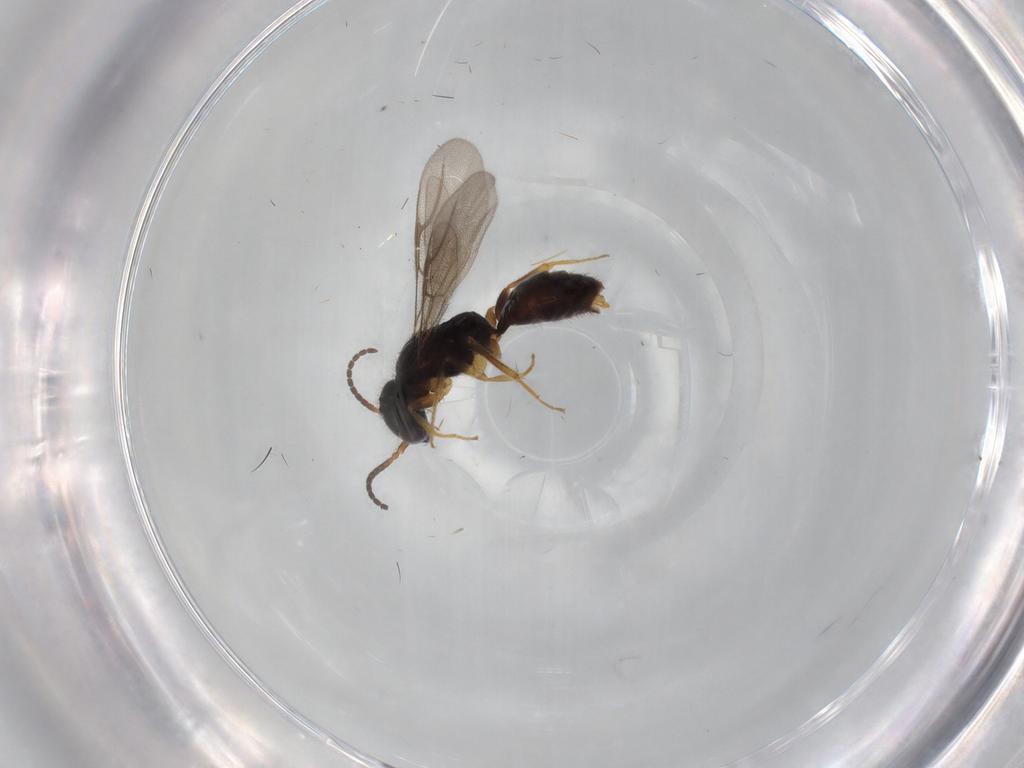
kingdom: Animalia
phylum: Arthropoda
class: Insecta
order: Hymenoptera
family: Bethylidae
